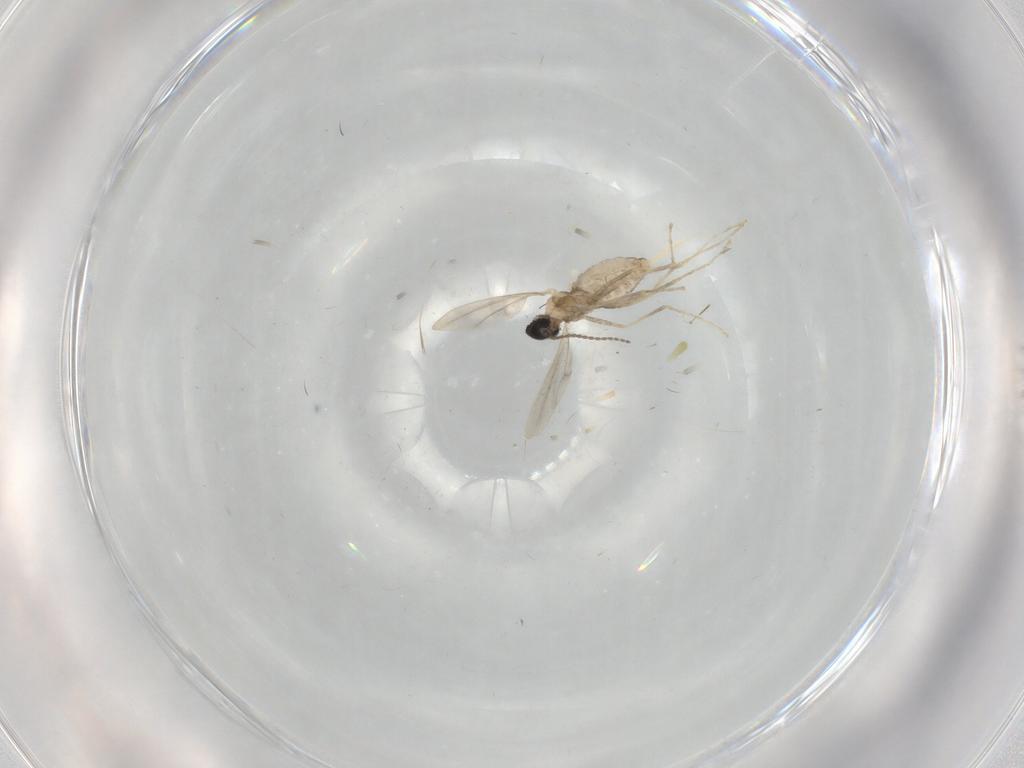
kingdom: Animalia
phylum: Arthropoda
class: Insecta
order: Diptera
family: Cecidomyiidae
